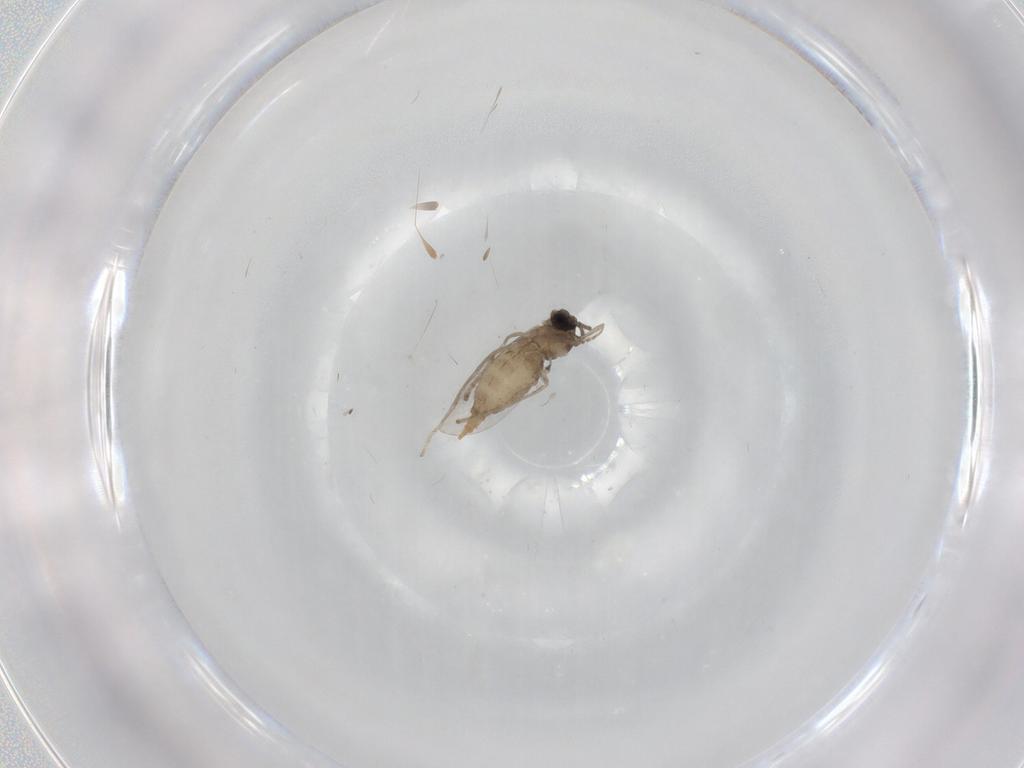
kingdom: Animalia
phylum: Arthropoda
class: Insecta
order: Diptera
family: Cecidomyiidae
